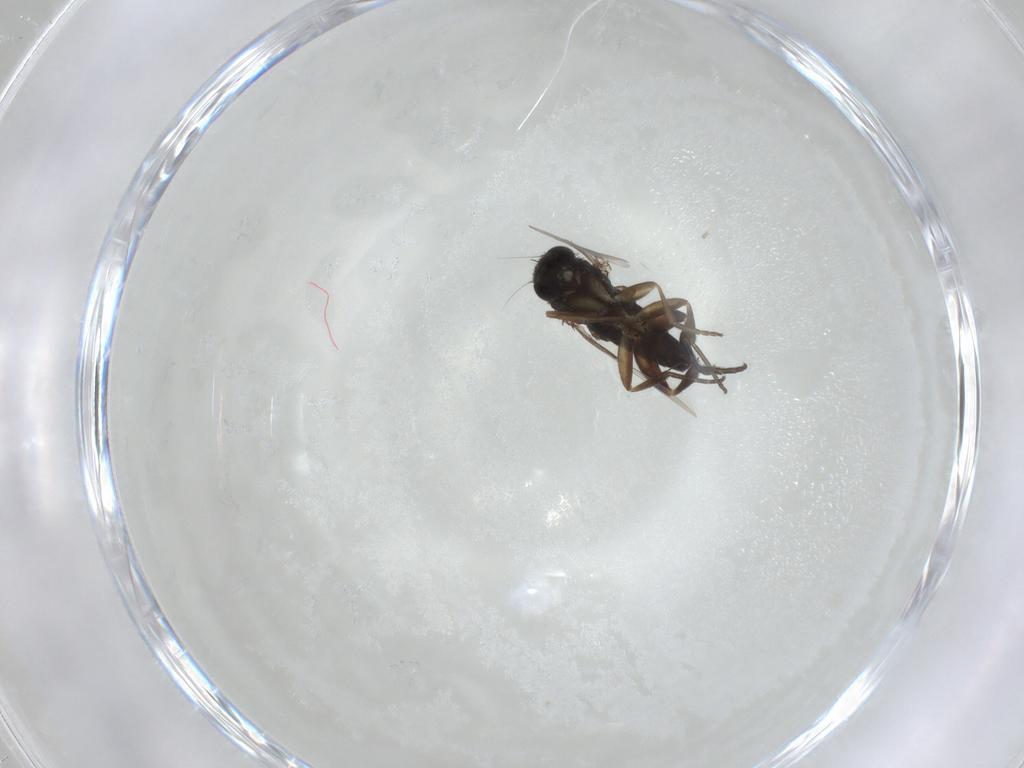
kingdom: Animalia
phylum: Arthropoda
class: Insecta
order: Diptera
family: Phoridae
